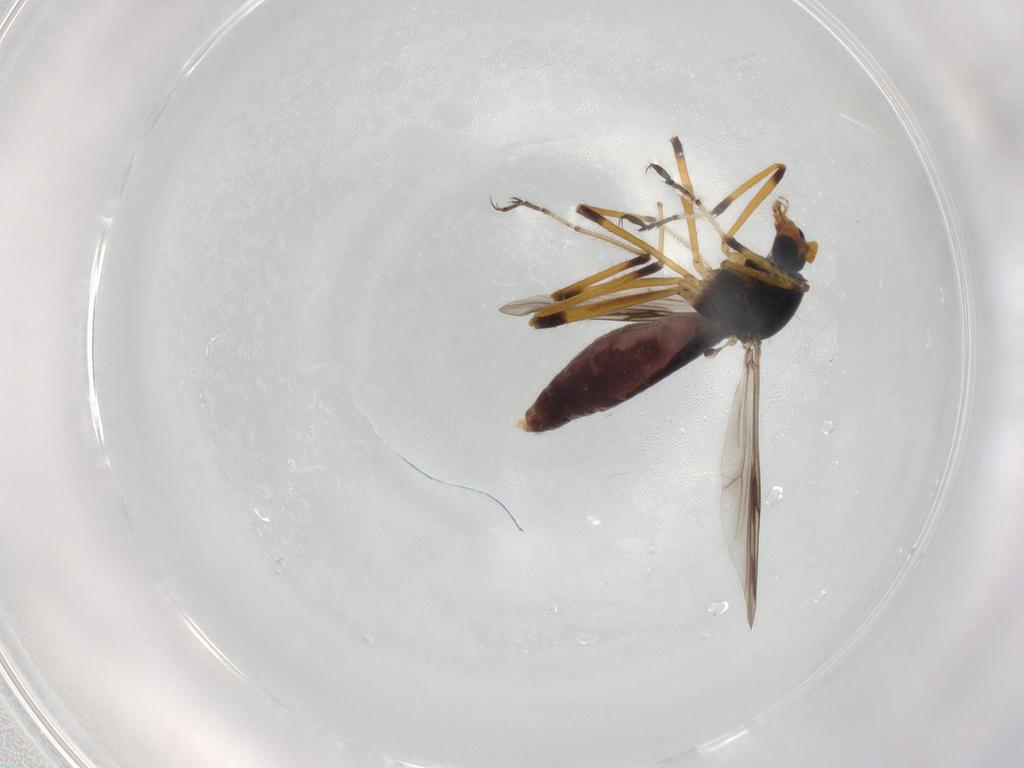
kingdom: Animalia
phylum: Arthropoda
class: Insecta
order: Diptera
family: Ceratopogonidae
